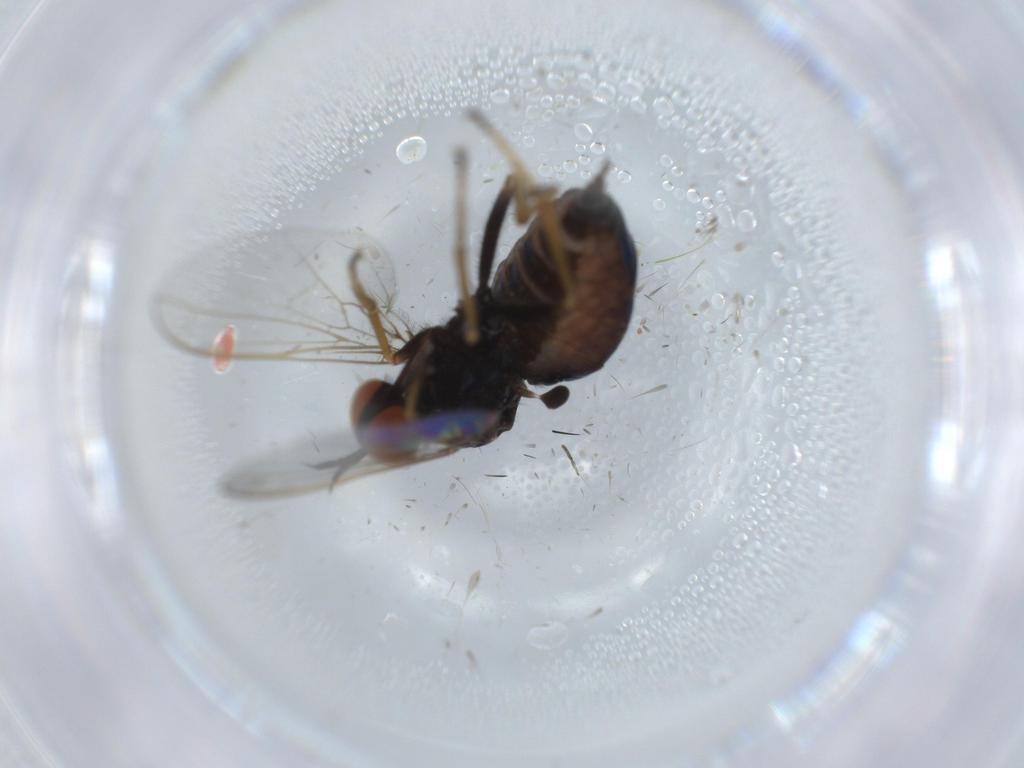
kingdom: Animalia
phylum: Arthropoda
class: Insecta
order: Diptera
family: Empididae
